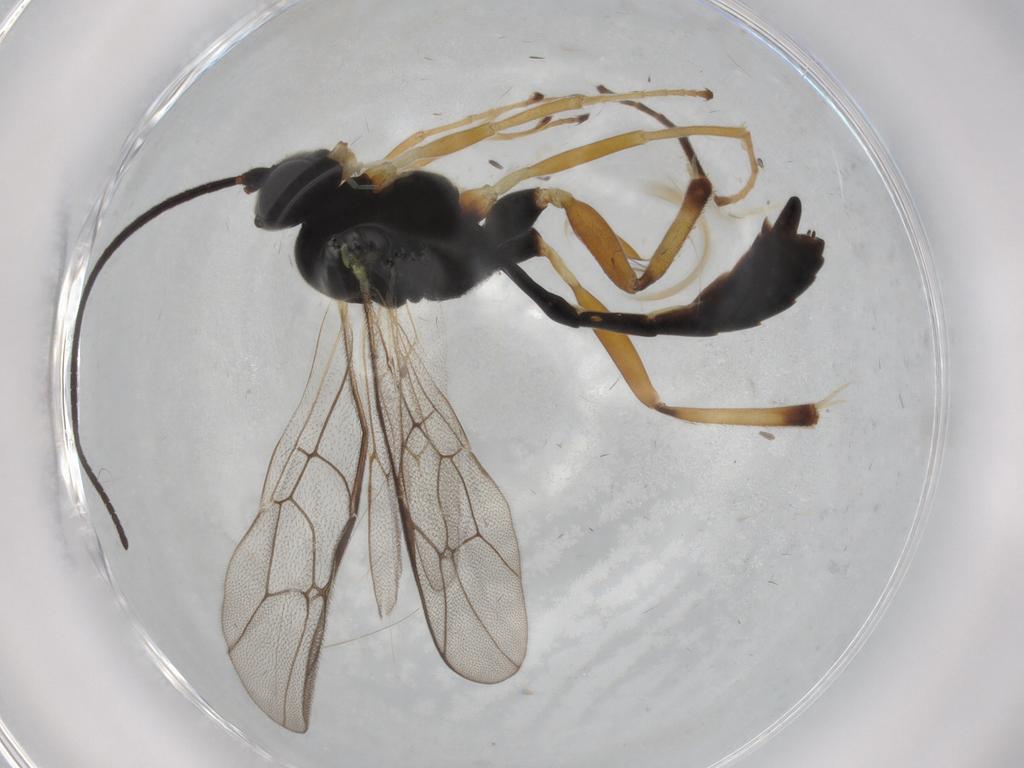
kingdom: Animalia
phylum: Arthropoda
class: Insecta
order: Hymenoptera
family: Ichneumonidae
